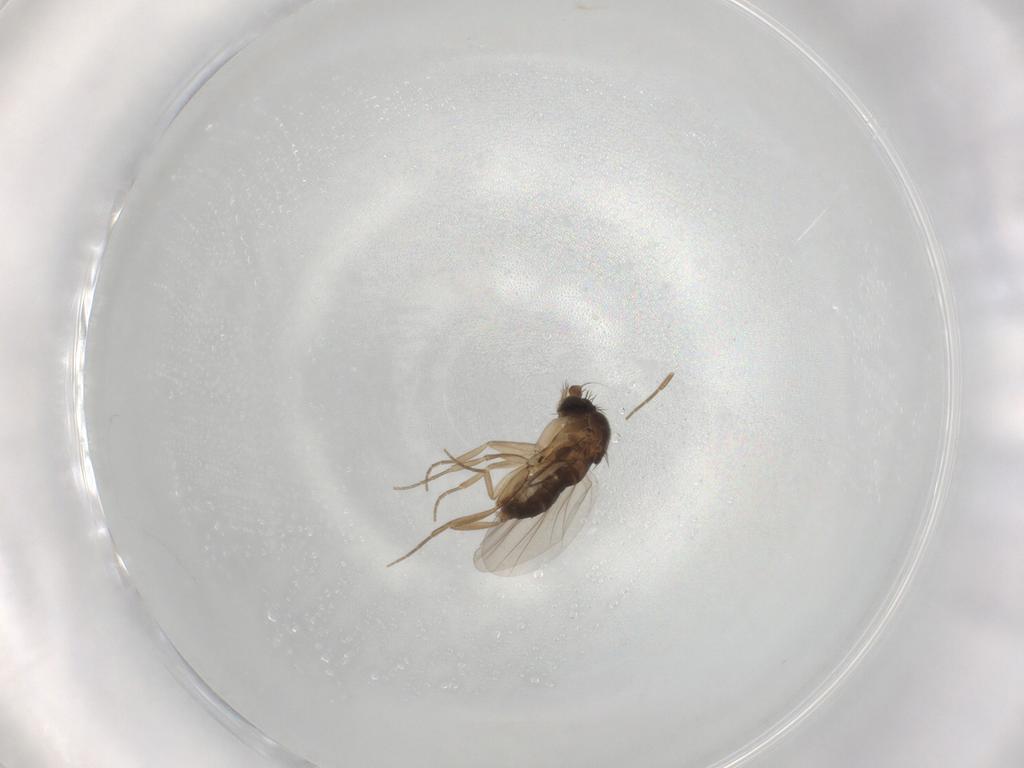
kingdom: Animalia
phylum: Arthropoda
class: Insecta
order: Diptera
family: Phoridae
